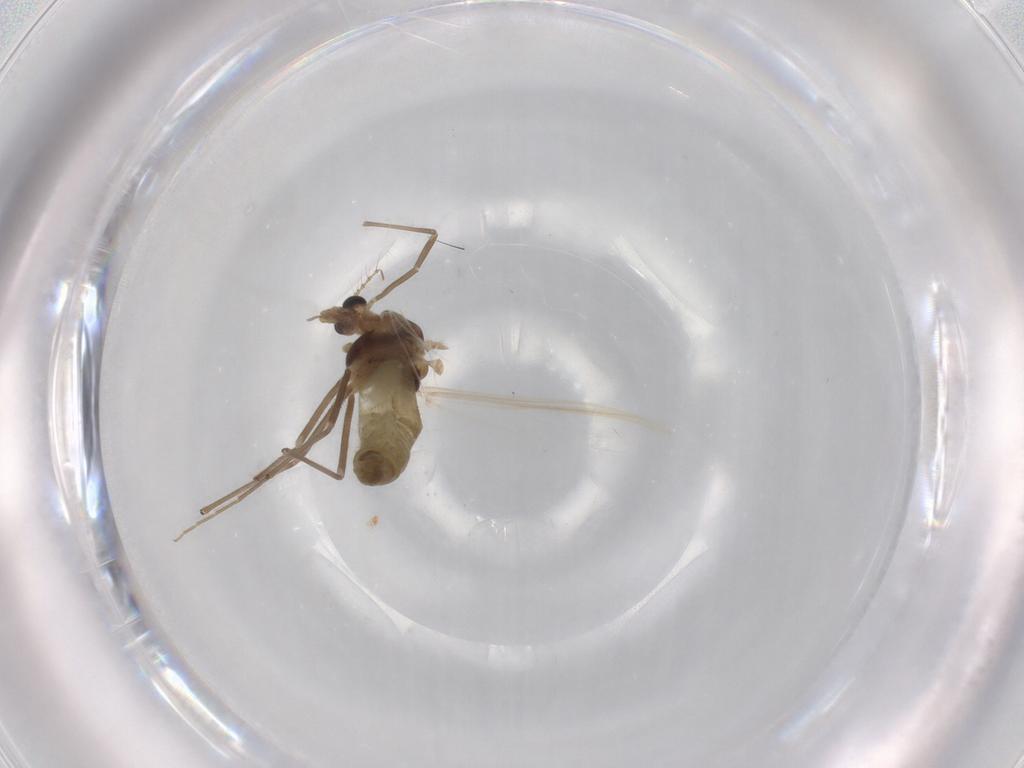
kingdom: Animalia
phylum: Arthropoda
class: Insecta
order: Diptera
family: Chironomidae
